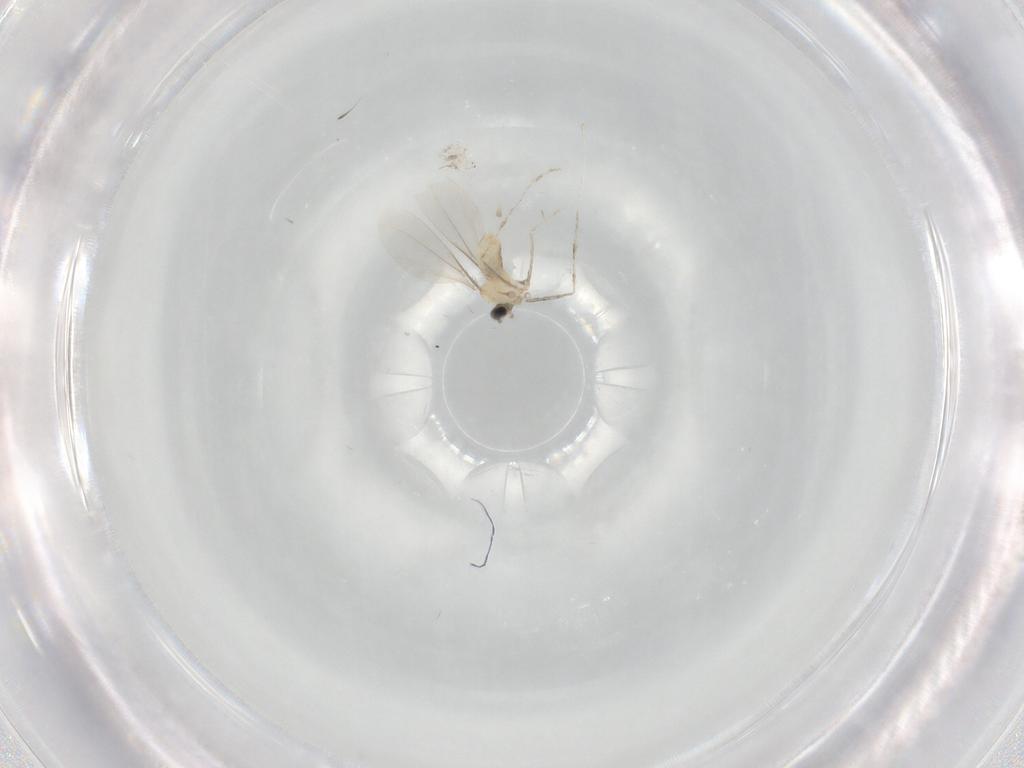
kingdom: Animalia
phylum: Arthropoda
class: Insecta
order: Diptera
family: Cecidomyiidae
